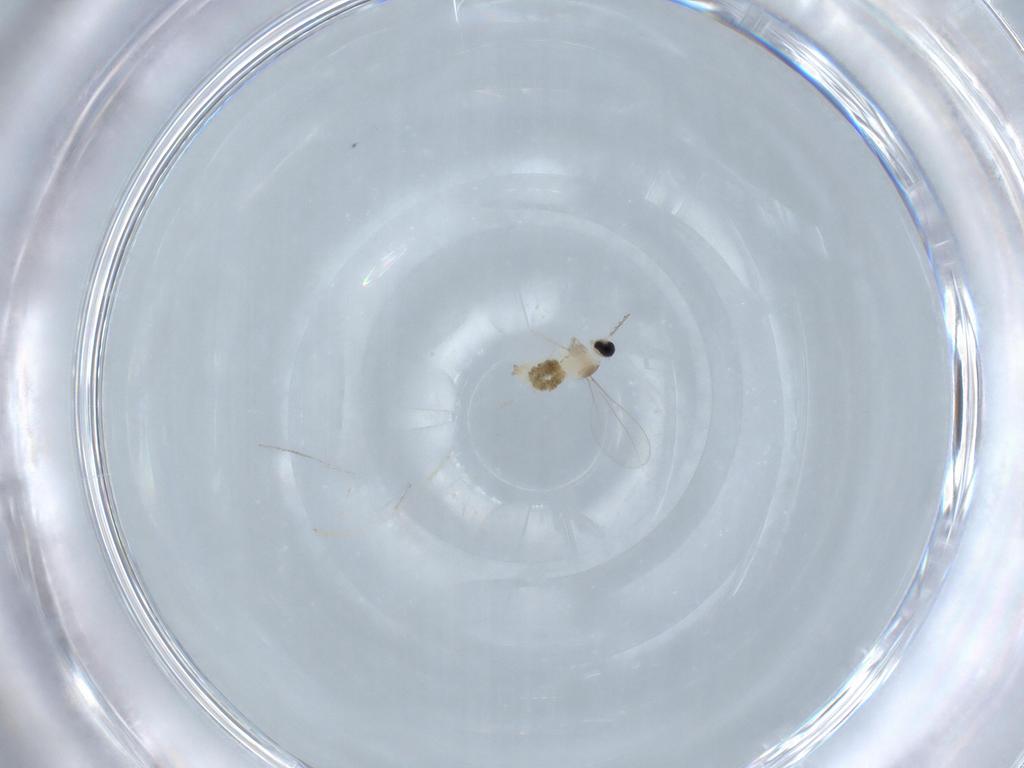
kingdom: Animalia
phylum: Arthropoda
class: Insecta
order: Diptera
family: Cecidomyiidae
